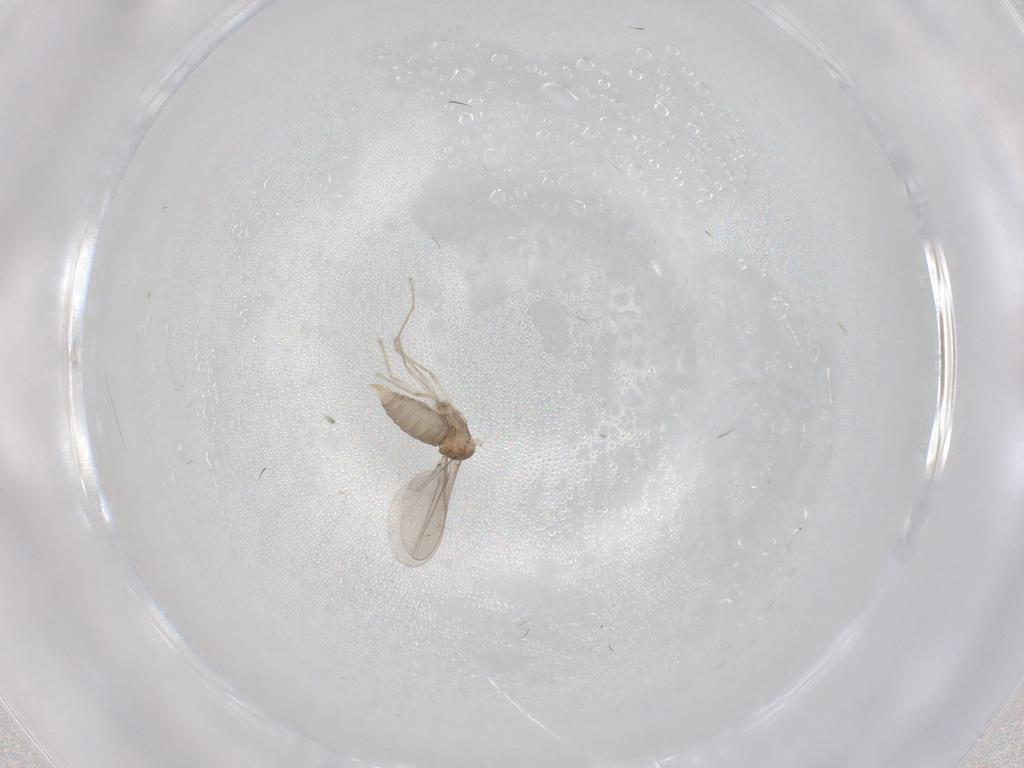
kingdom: Animalia
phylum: Arthropoda
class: Insecta
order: Diptera
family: Cecidomyiidae
